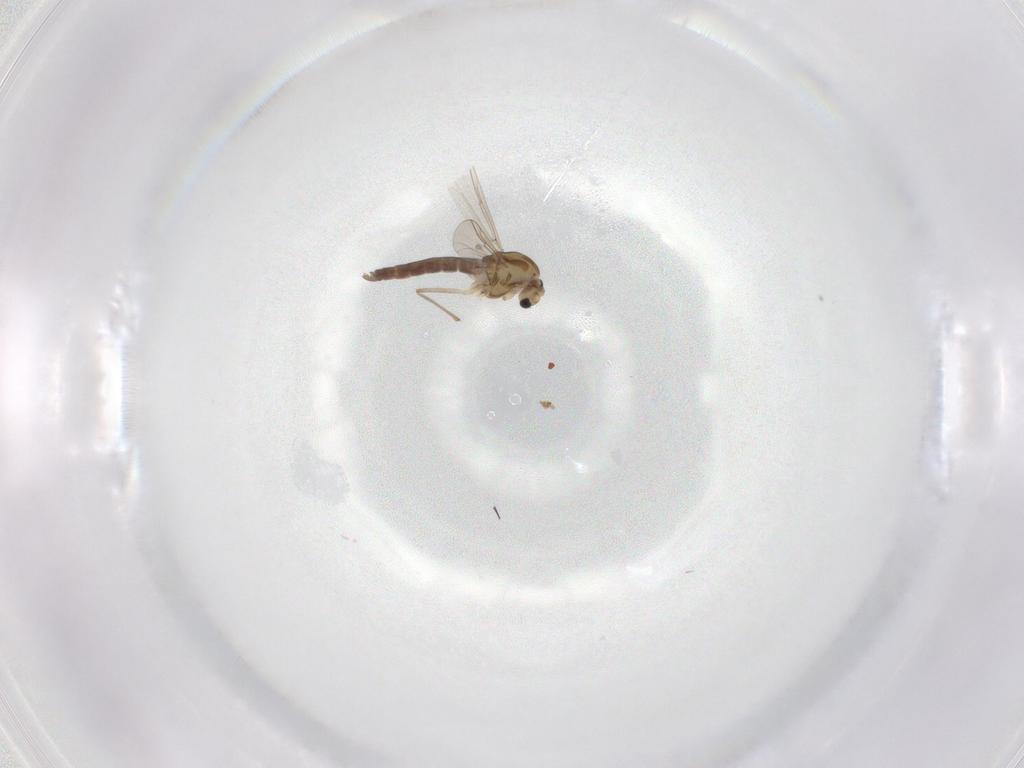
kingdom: Animalia
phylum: Arthropoda
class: Insecta
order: Diptera
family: Chironomidae
